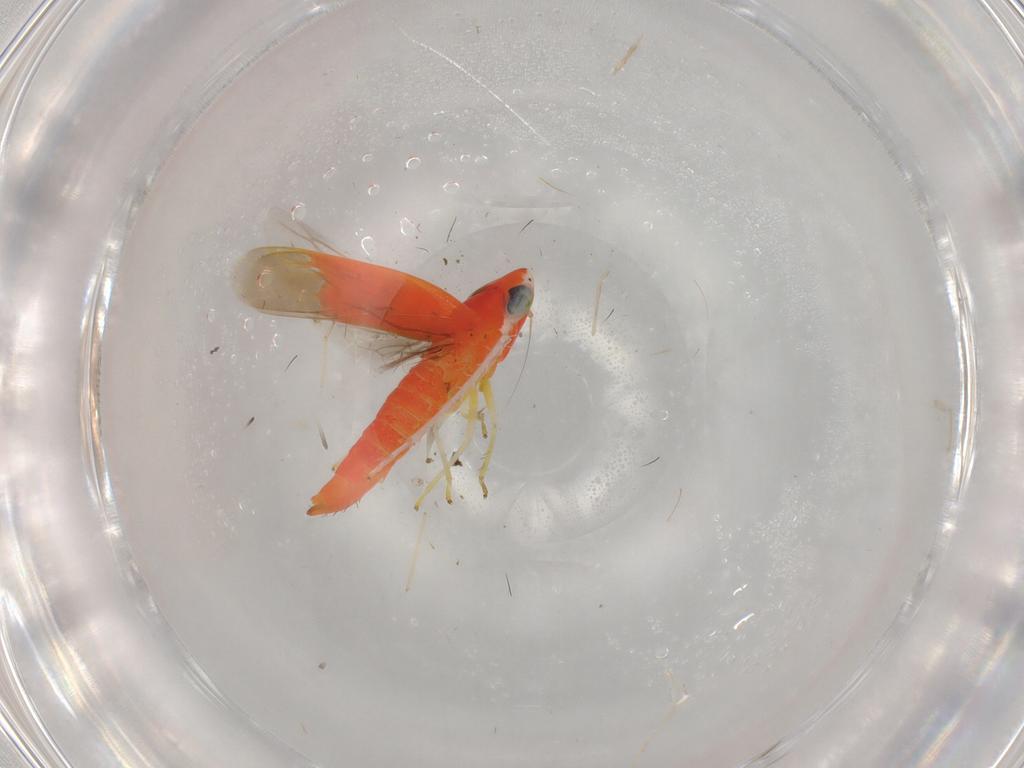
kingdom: Animalia
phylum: Arthropoda
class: Insecta
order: Hemiptera
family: Cicadellidae
